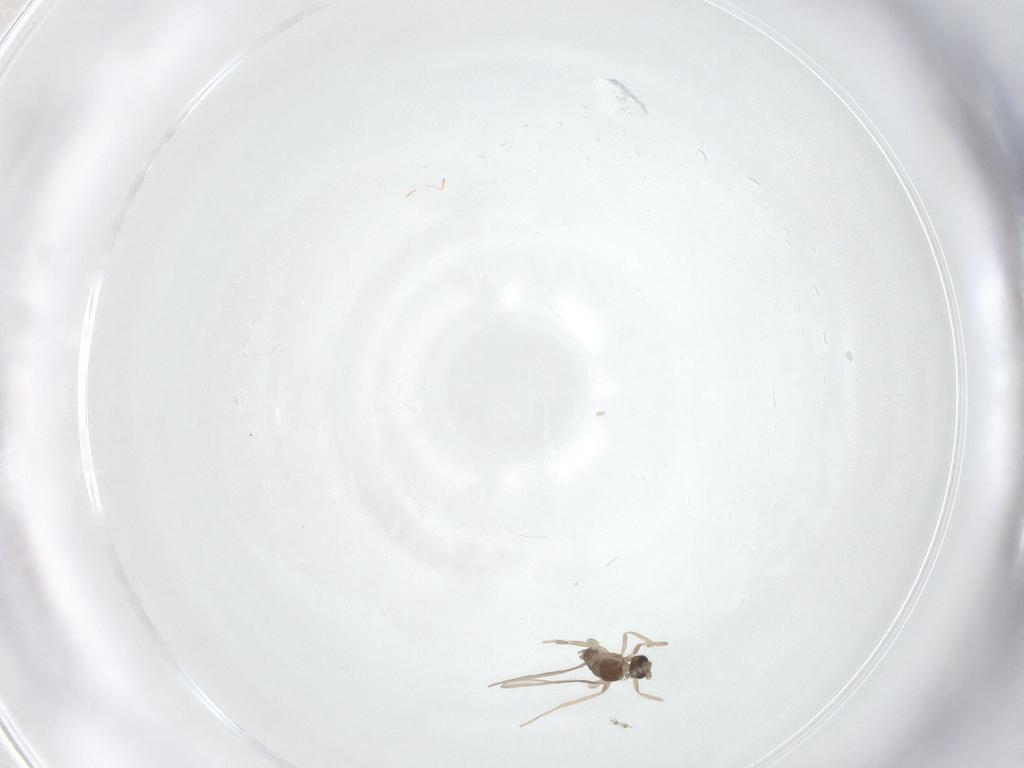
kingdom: Animalia
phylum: Arthropoda
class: Insecta
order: Diptera
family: Cecidomyiidae
